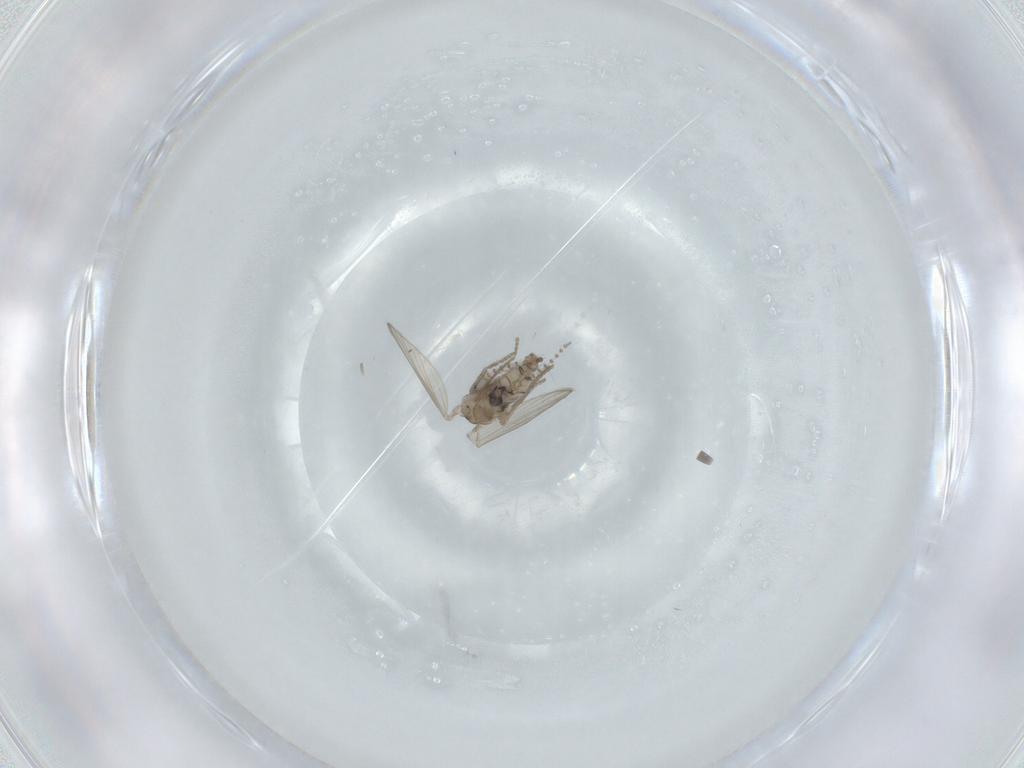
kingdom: Animalia
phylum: Arthropoda
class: Insecta
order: Diptera
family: Psychodidae
